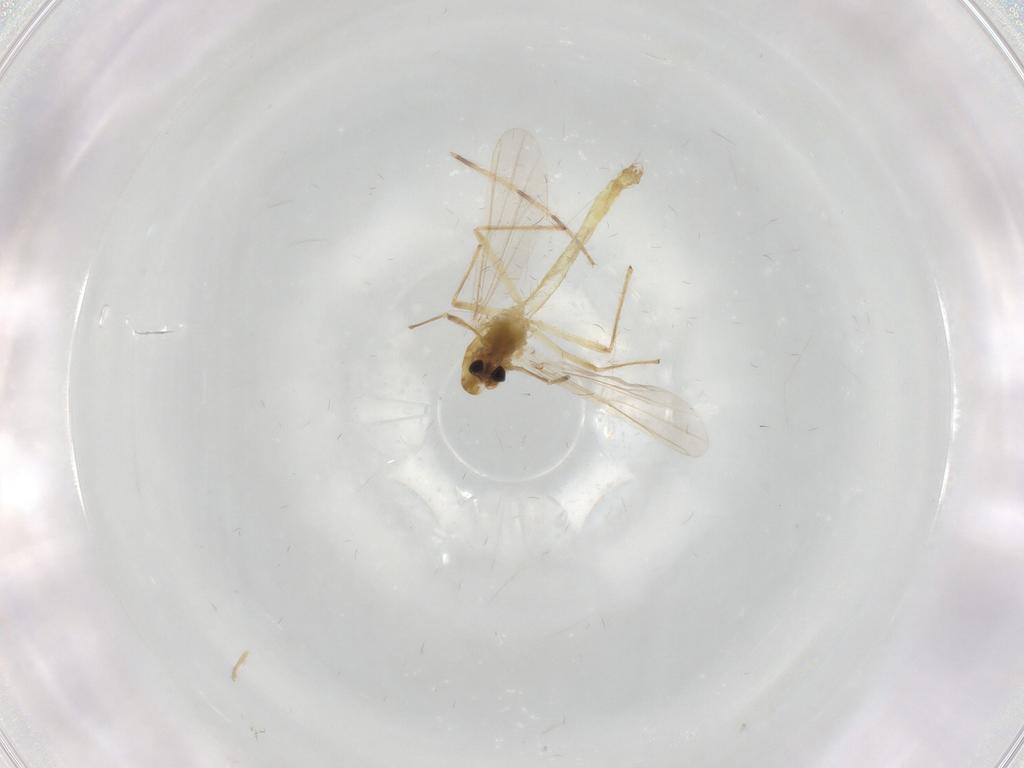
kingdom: Animalia
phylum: Arthropoda
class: Insecta
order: Diptera
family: Chironomidae
